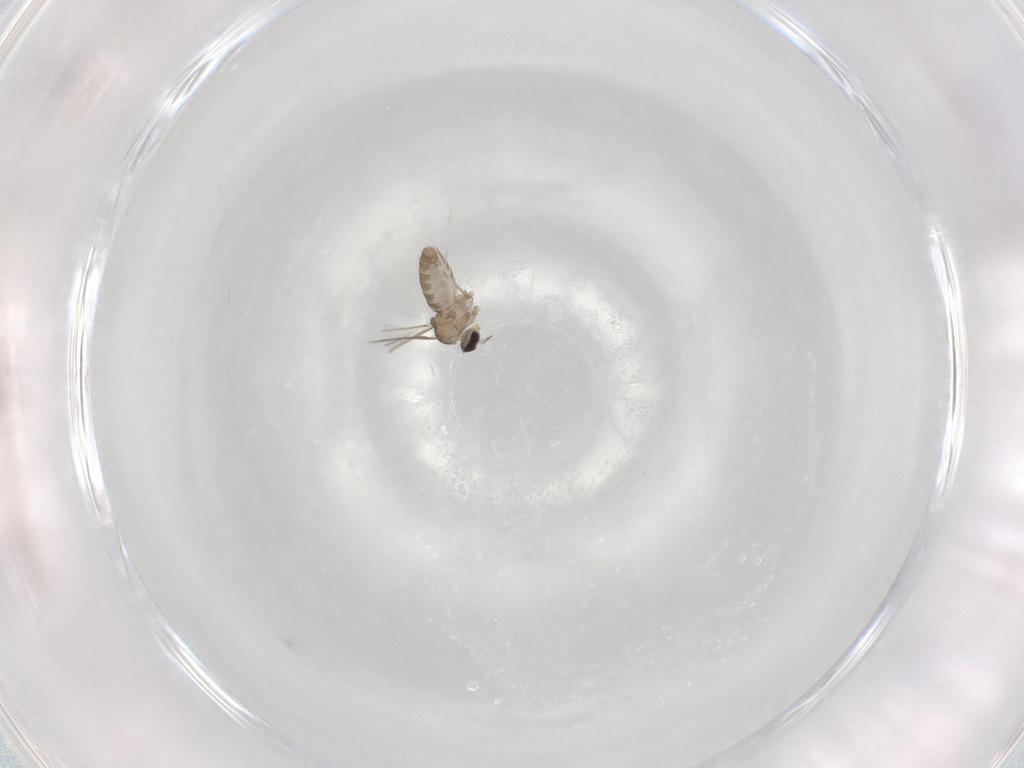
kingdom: Animalia
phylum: Arthropoda
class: Insecta
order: Diptera
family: Cecidomyiidae
